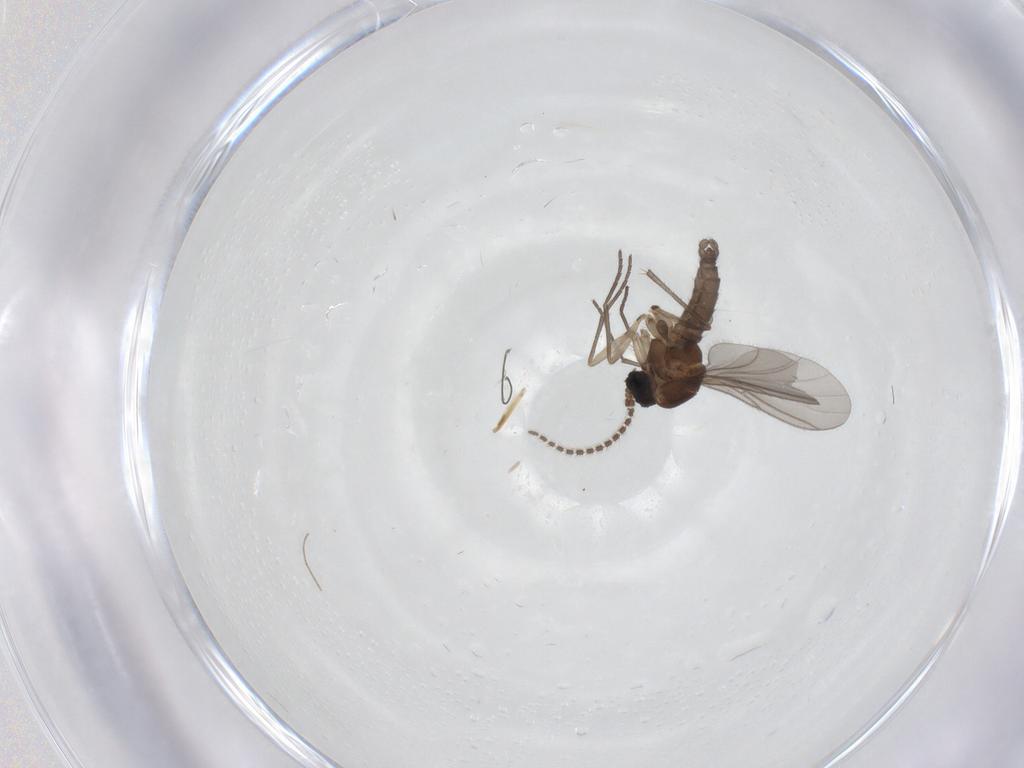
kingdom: Animalia
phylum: Arthropoda
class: Insecta
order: Diptera
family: Sciaridae
